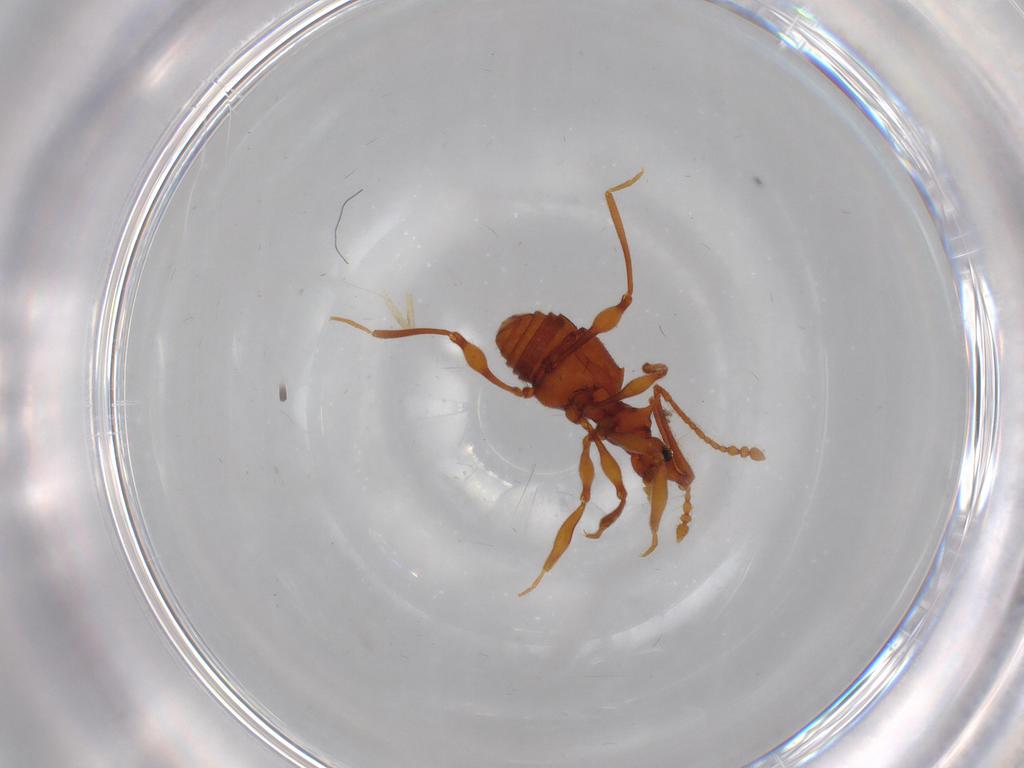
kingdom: Animalia
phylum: Arthropoda
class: Insecta
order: Coleoptera
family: Staphylinidae
